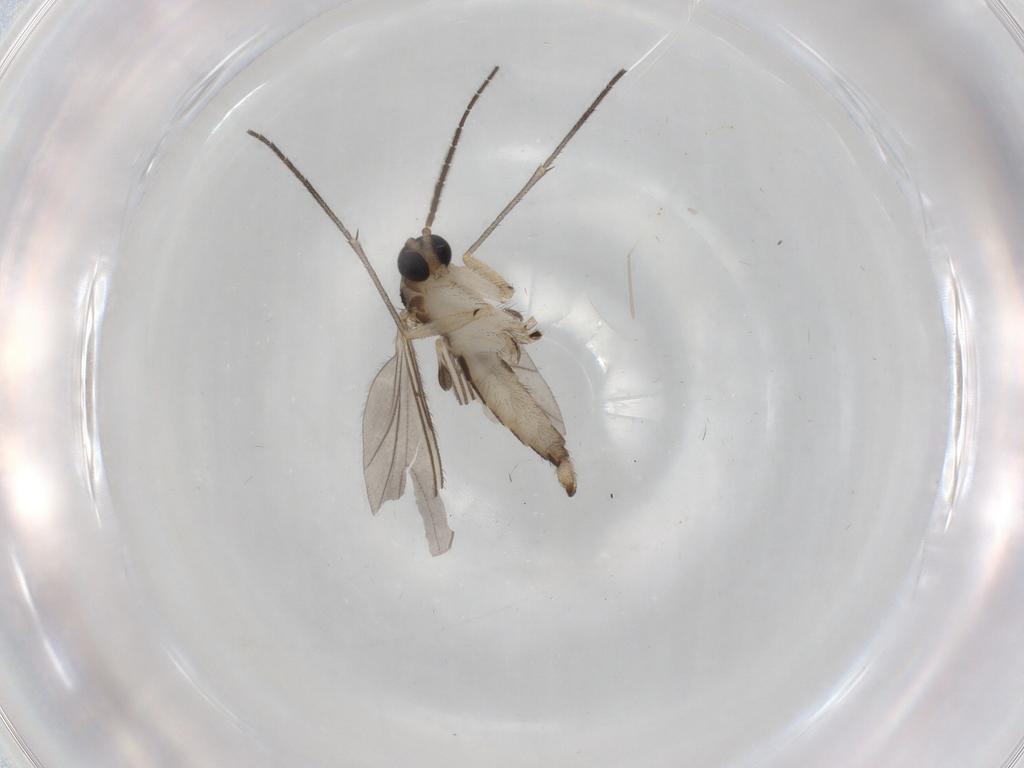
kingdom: Animalia
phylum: Arthropoda
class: Insecta
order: Diptera
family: Sciaridae
